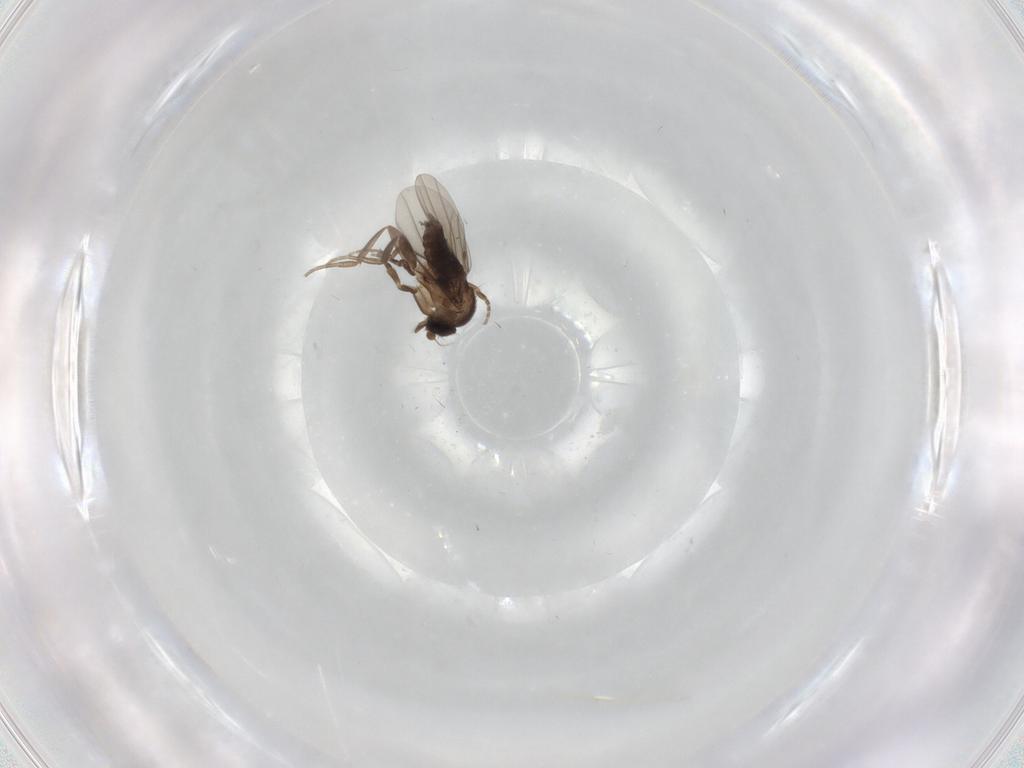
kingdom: Animalia
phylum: Arthropoda
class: Insecta
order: Diptera
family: Phoridae
